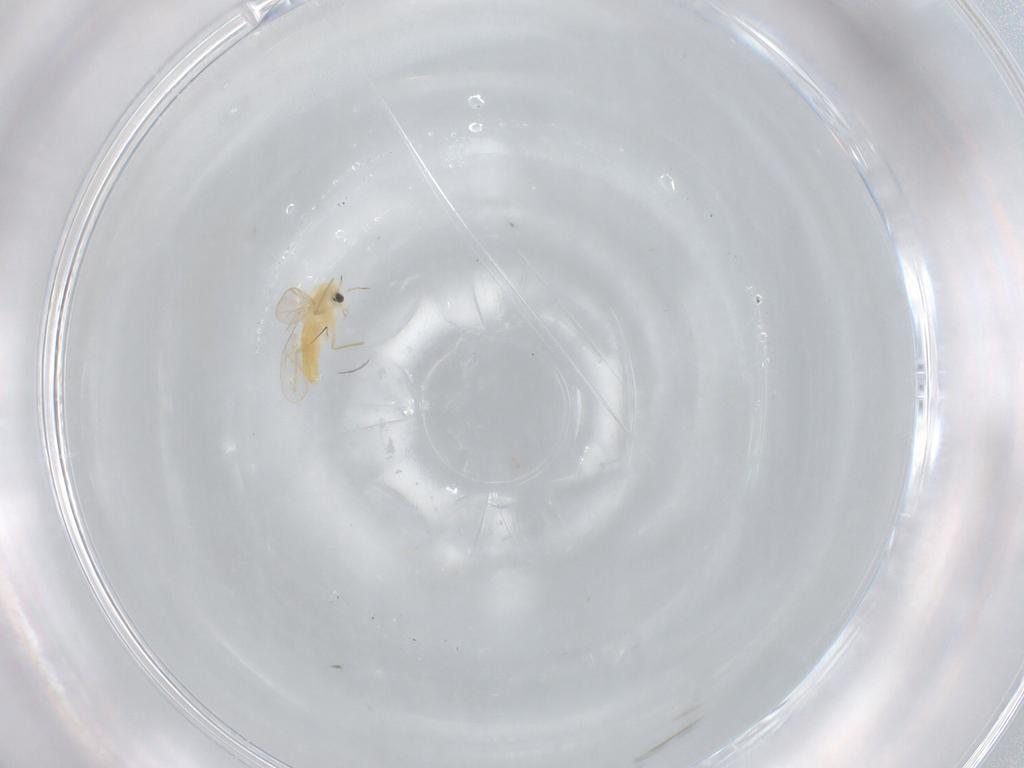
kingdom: Animalia
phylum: Arthropoda
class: Insecta
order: Diptera
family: Chironomidae
